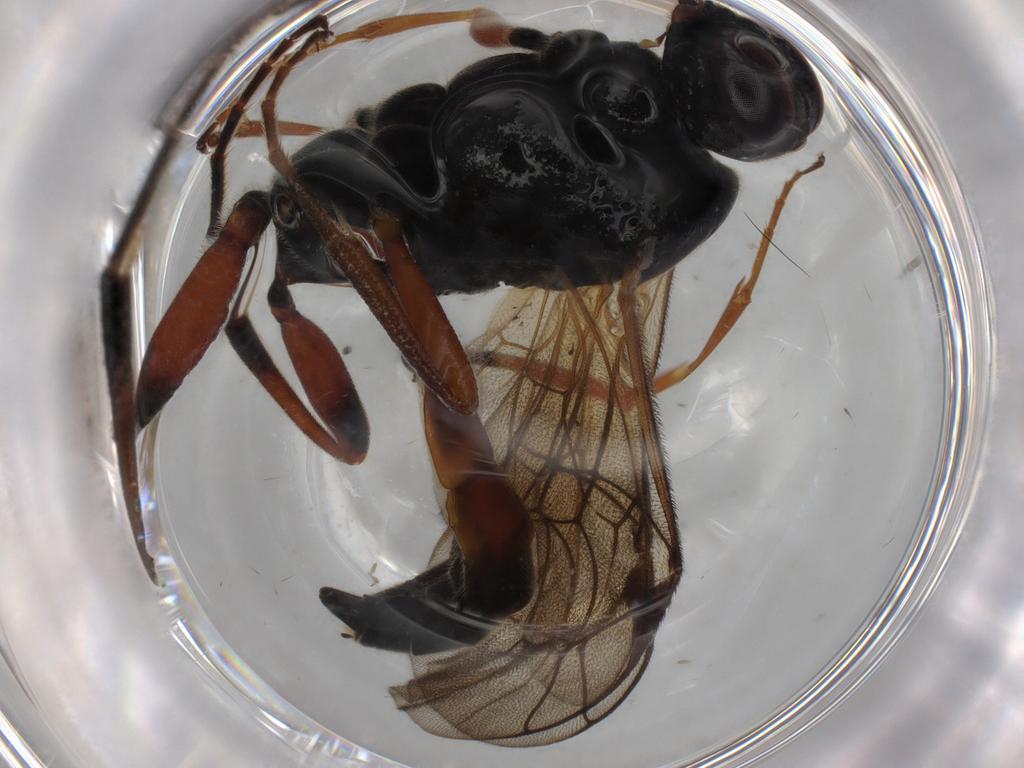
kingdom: Animalia
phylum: Arthropoda
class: Insecta
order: Hymenoptera
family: Ichneumonidae
